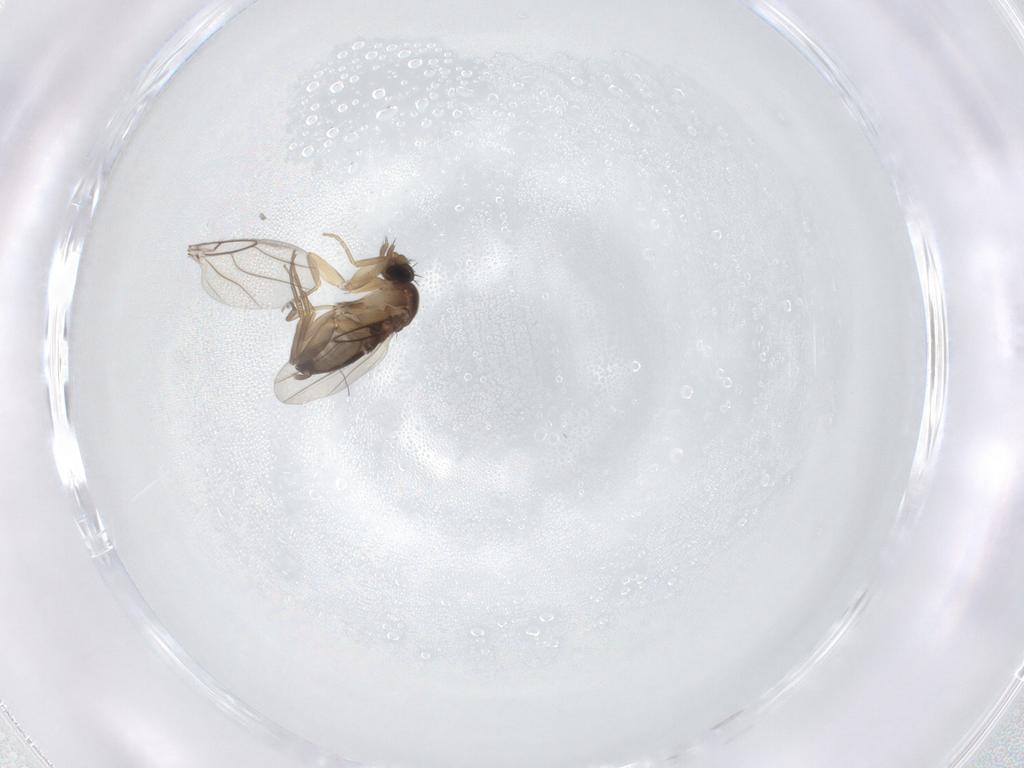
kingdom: Animalia
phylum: Arthropoda
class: Insecta
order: Diptera
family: Phoridae
